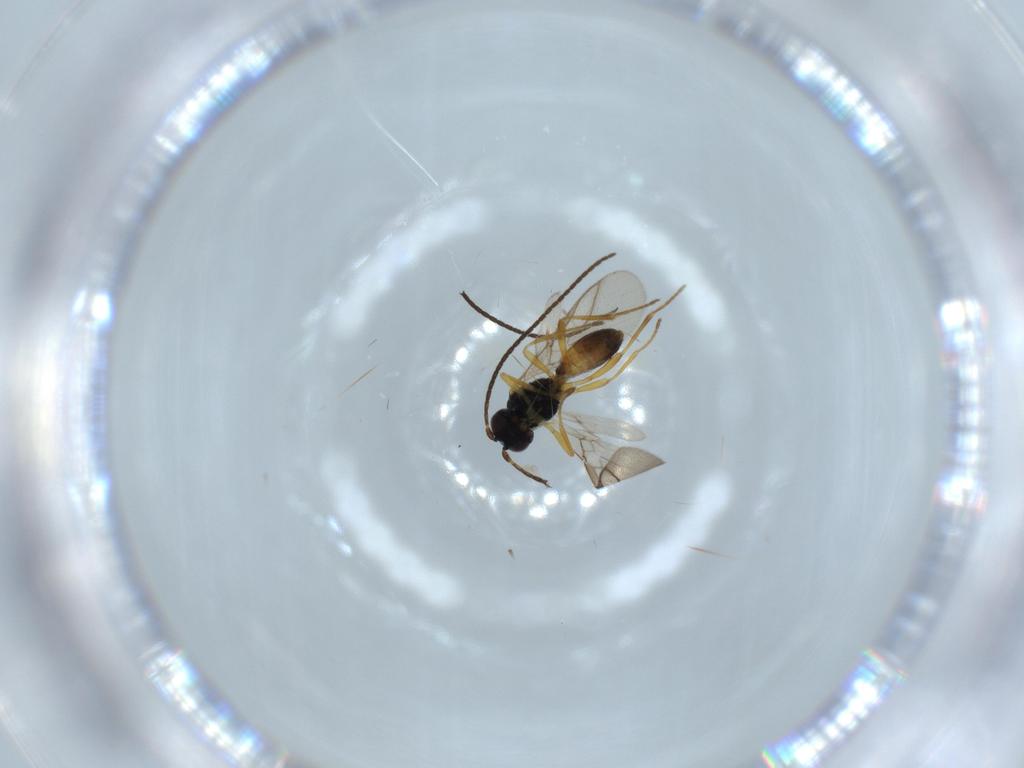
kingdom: Animalia
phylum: Arthropoda
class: Insecta
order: Hymenoptera
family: Braconidae
